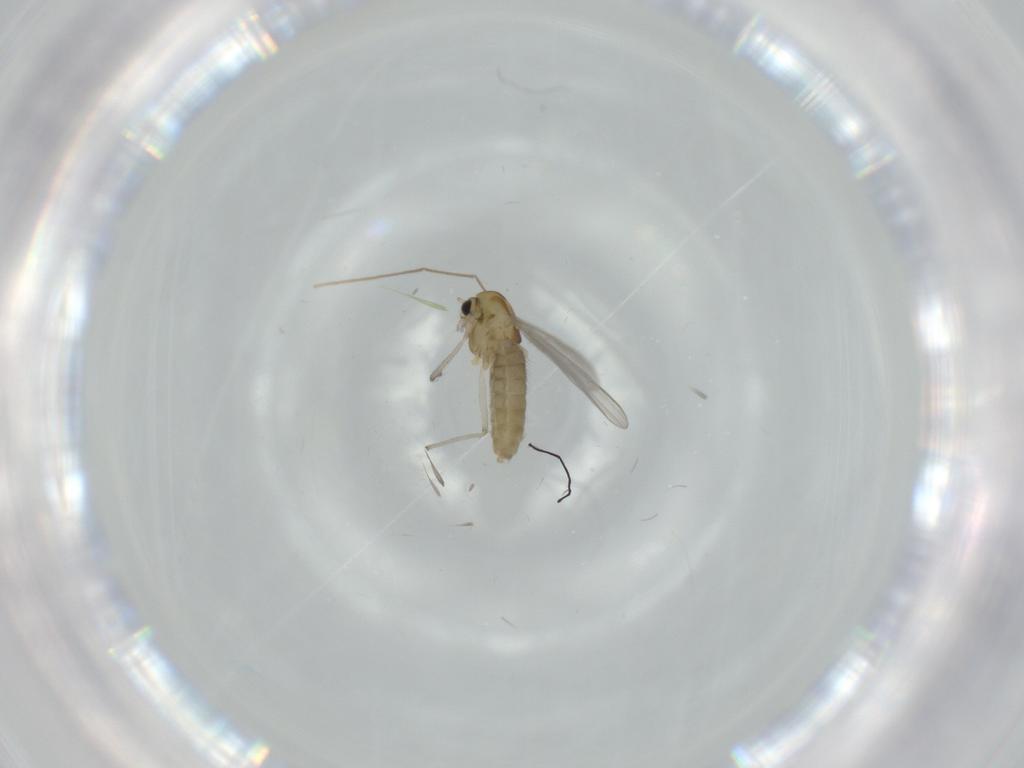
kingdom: Animalia
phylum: Arthropoda
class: Insecta
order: Diptera
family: Chironomidae
